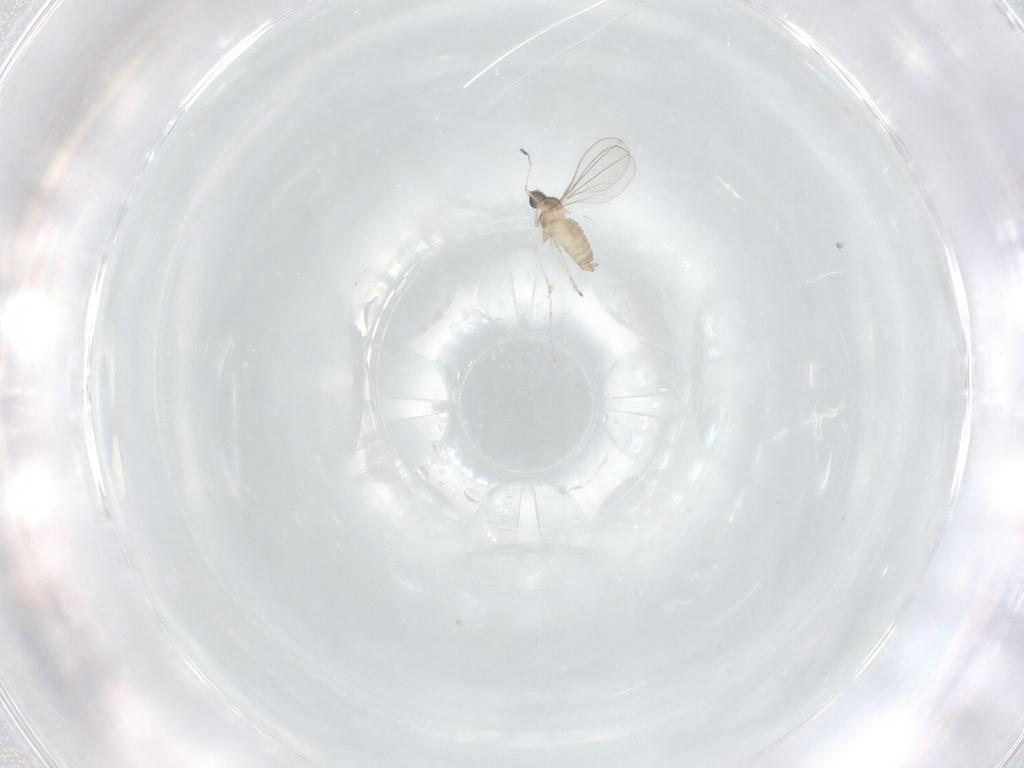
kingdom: Animalia
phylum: Arthropoda
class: Insecta
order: Diptera
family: Cecidomyiidae
